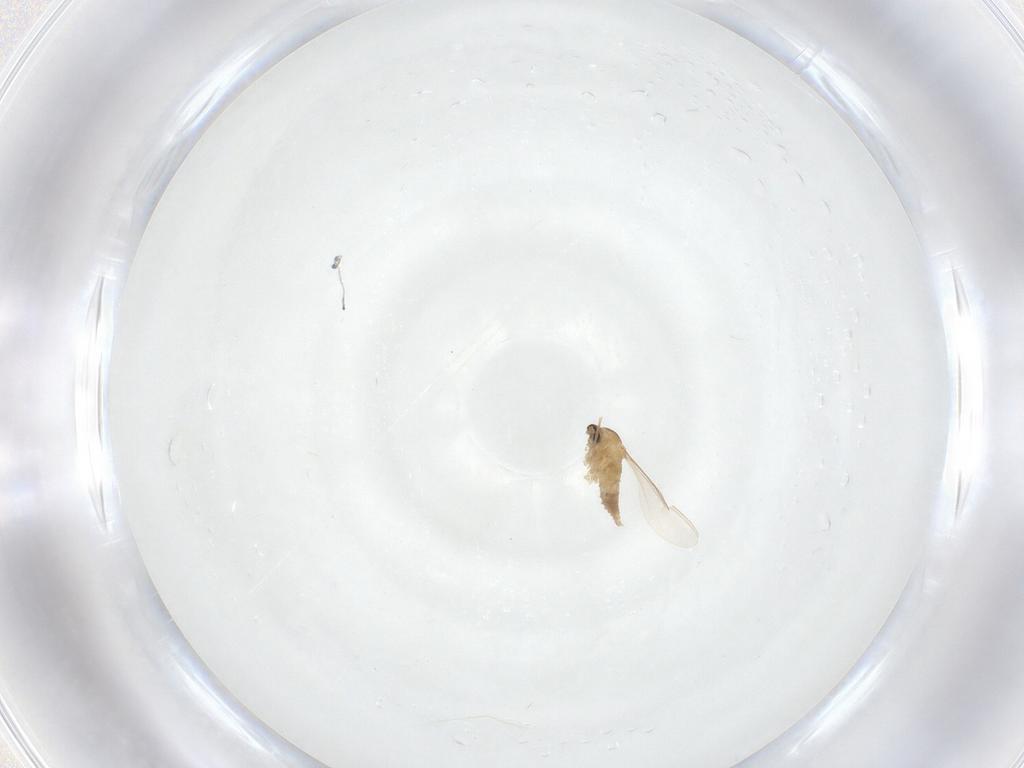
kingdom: Animalia
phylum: Arthropoda
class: Insecta
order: Diptera
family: Cecidomyiidae
